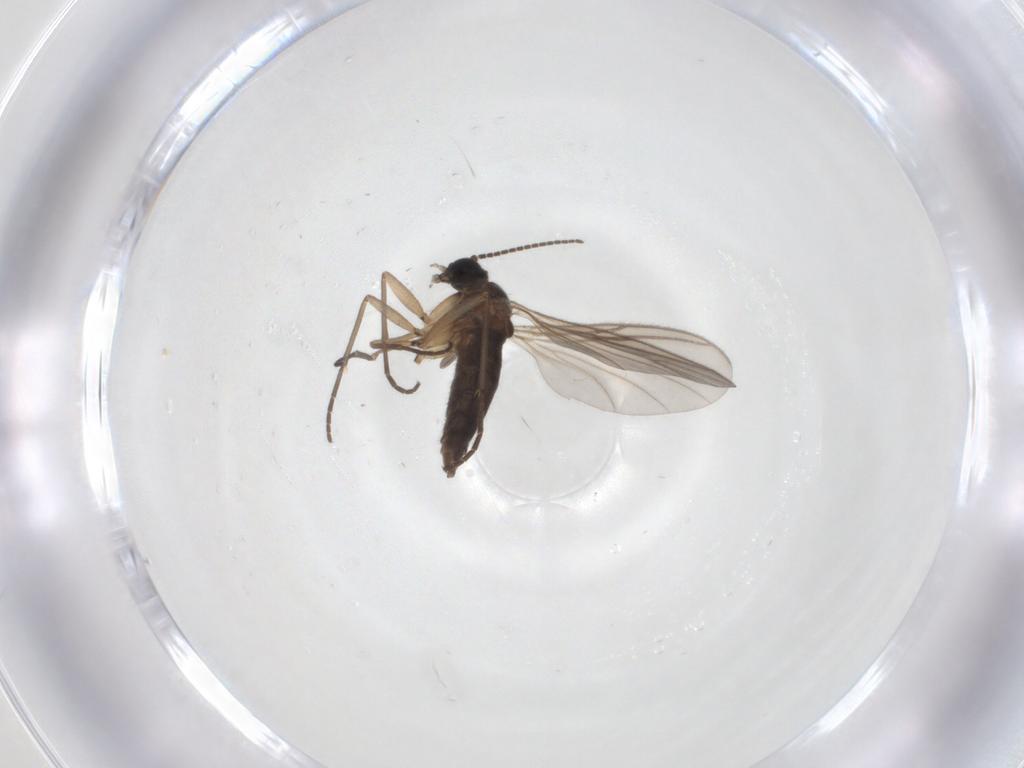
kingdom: Animalia
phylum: Arthropoda
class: Insecta
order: Diptera
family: Sciaridae
